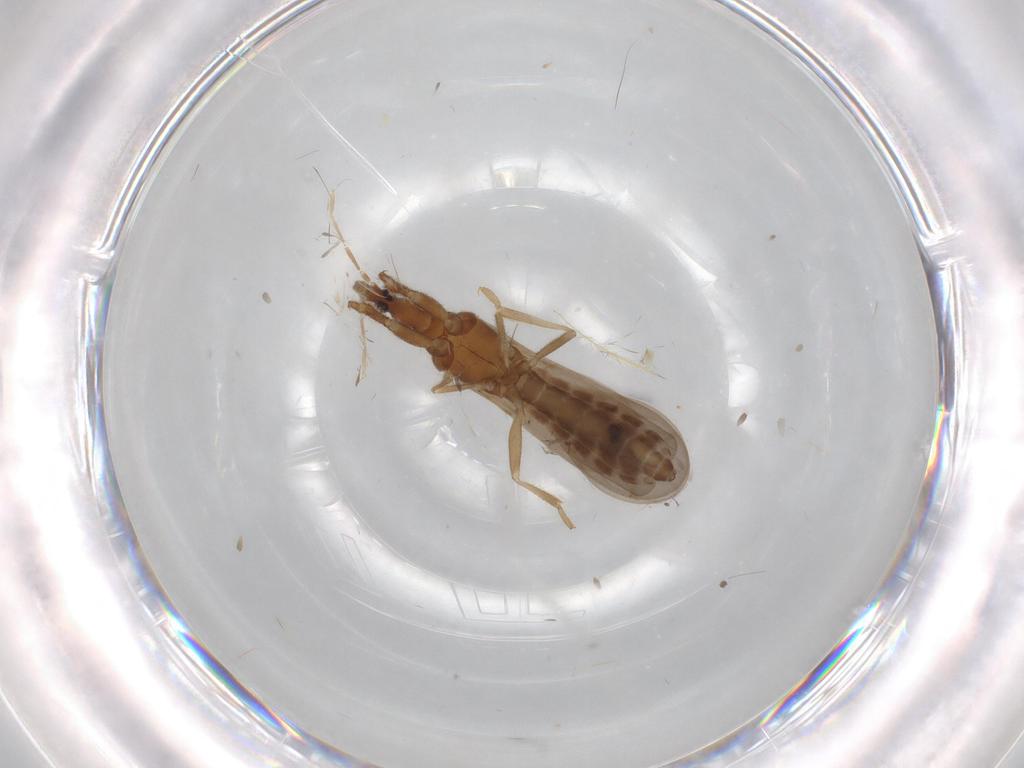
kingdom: Animalia
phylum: Arthropoda
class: Insecta
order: Hemiptera
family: Enicocephalidae
